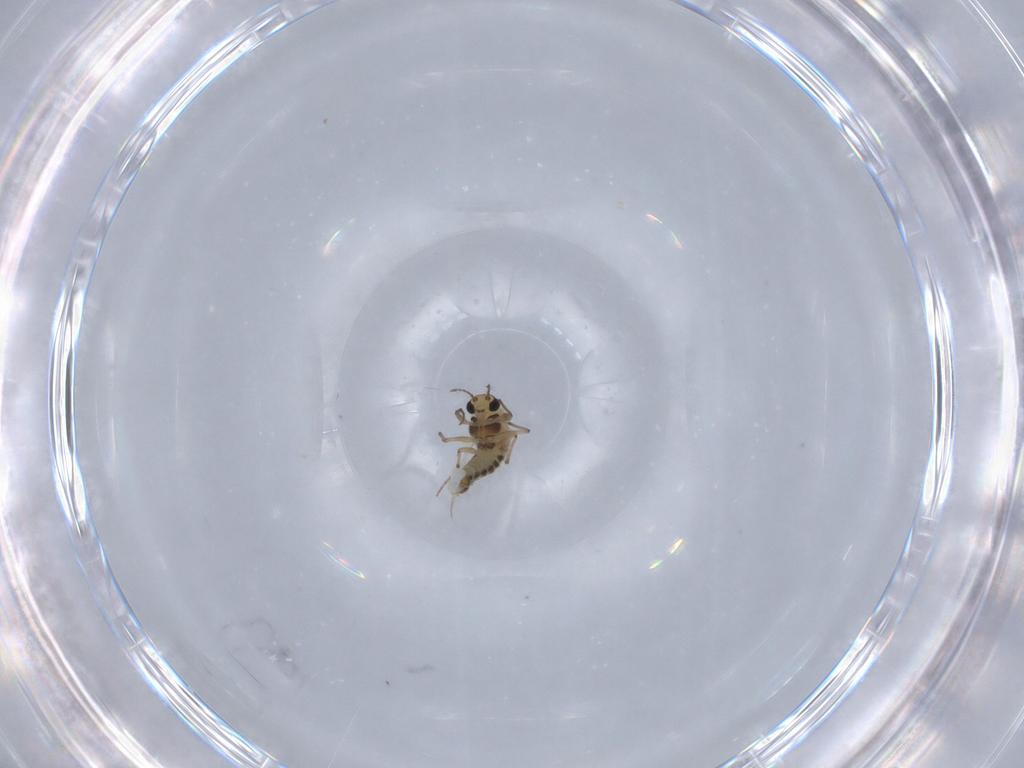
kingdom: Animalia
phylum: Arthropoda
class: Insecta
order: Diptera
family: Chironomidae
